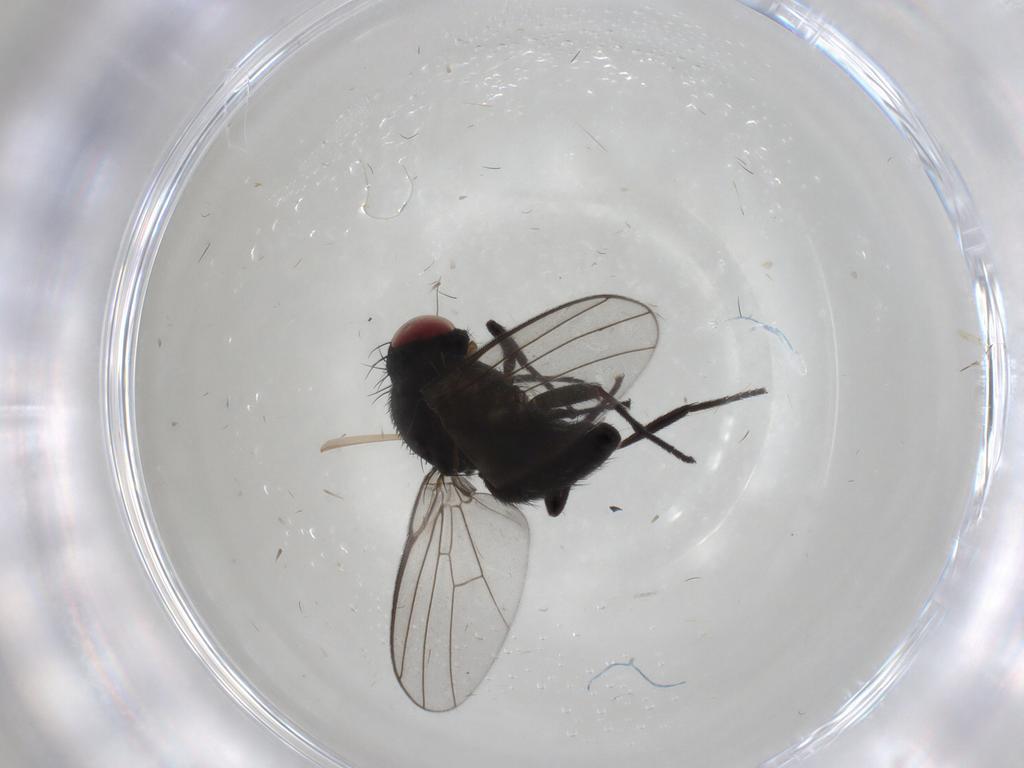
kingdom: Animalia
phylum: Arthropoda
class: Insecta
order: Diptera
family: Agromyzidae
